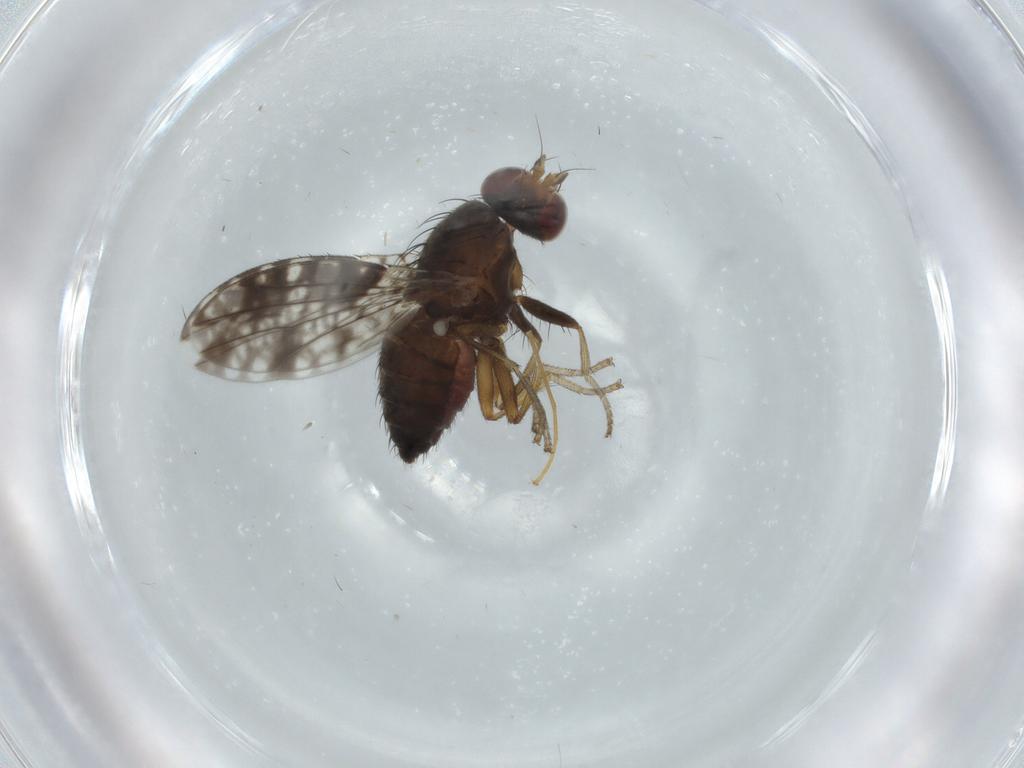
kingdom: Animalia
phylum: Arthropoda
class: Insecta
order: Diptera
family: Tephritidae
